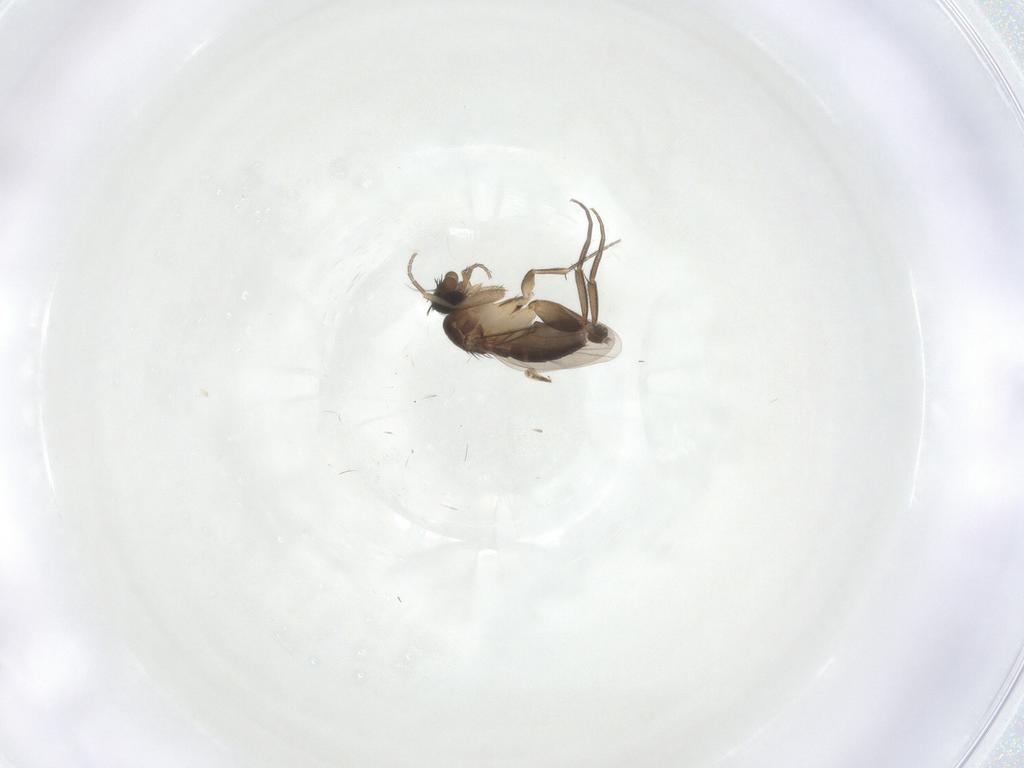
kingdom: Animalia
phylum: Arthropoda
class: Insecta
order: Diptera
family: Phoridae
